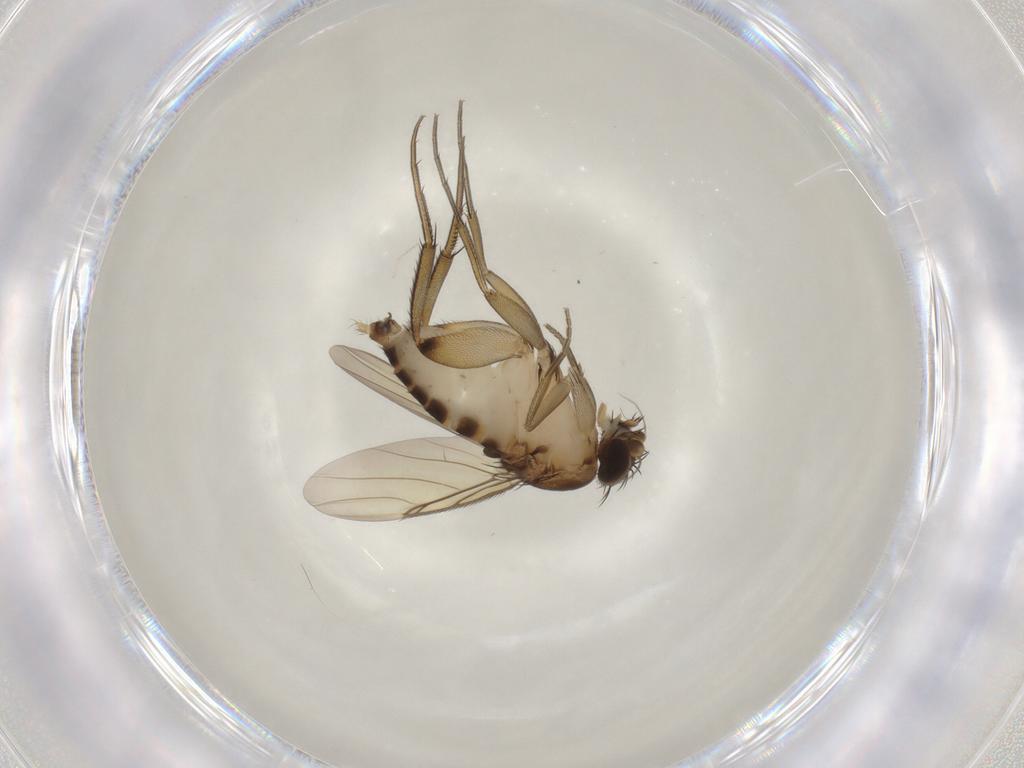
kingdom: Animalia
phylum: Arthropoda
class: Insecta
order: Diptera
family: Phoridae
